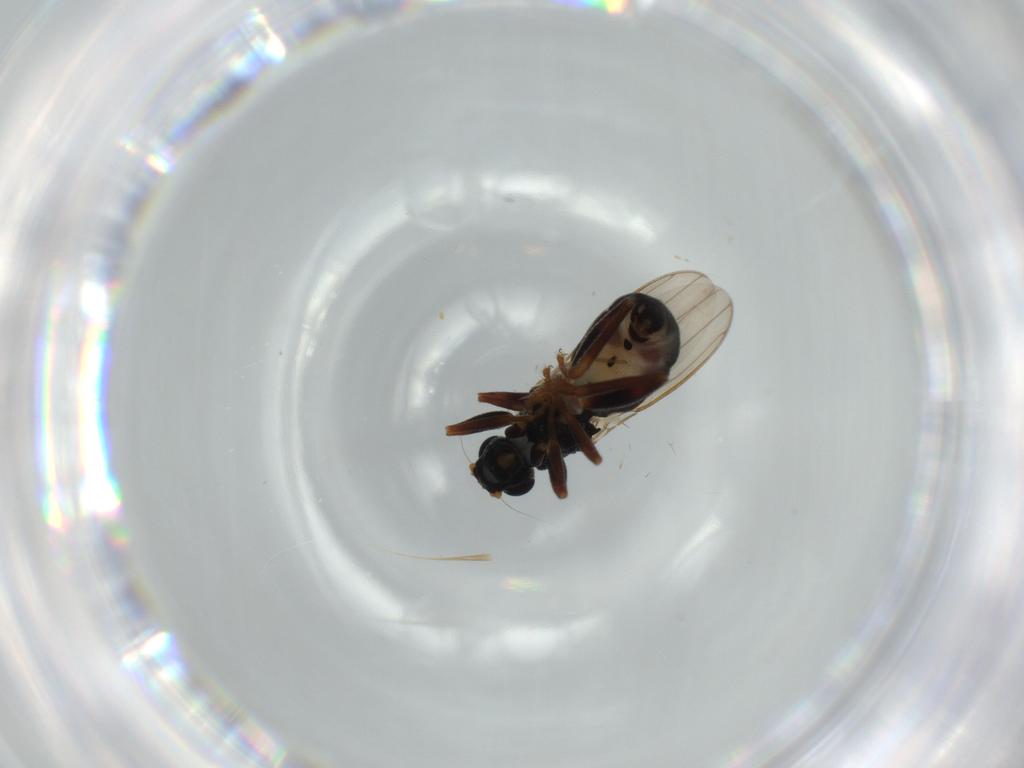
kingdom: Animalia
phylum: Arthropoda
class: Insecta
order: Diptera
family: Sphaeroceridae
